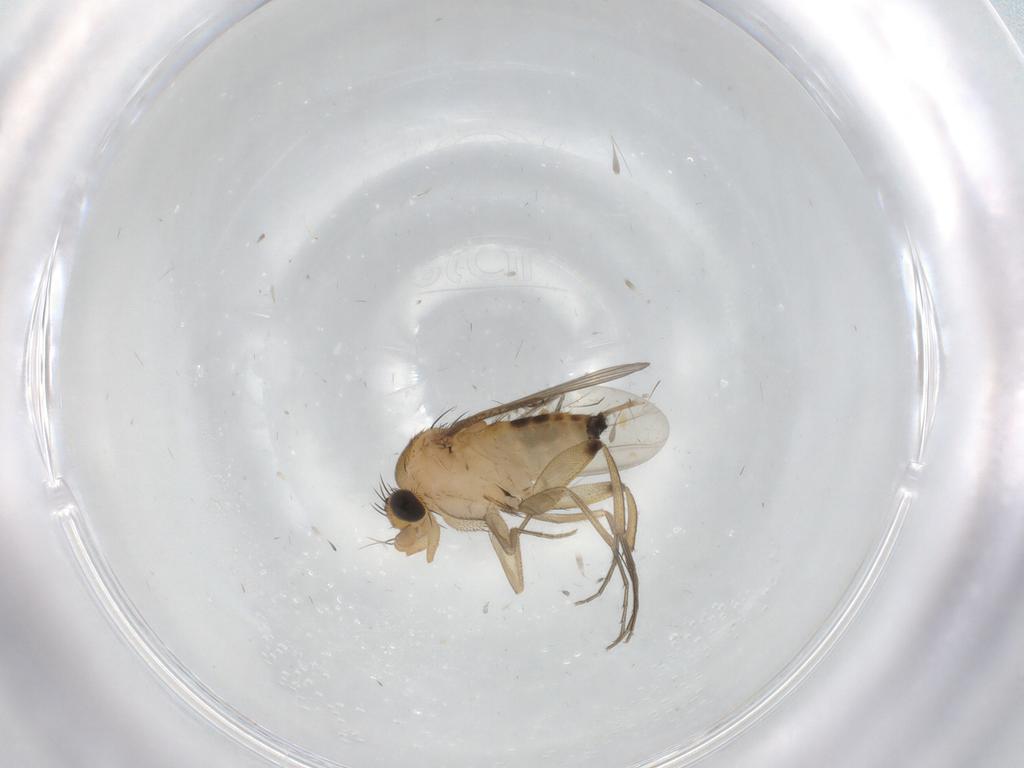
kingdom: Animalia
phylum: Arthropoda
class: Insecta
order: Diptera
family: Phoridae
